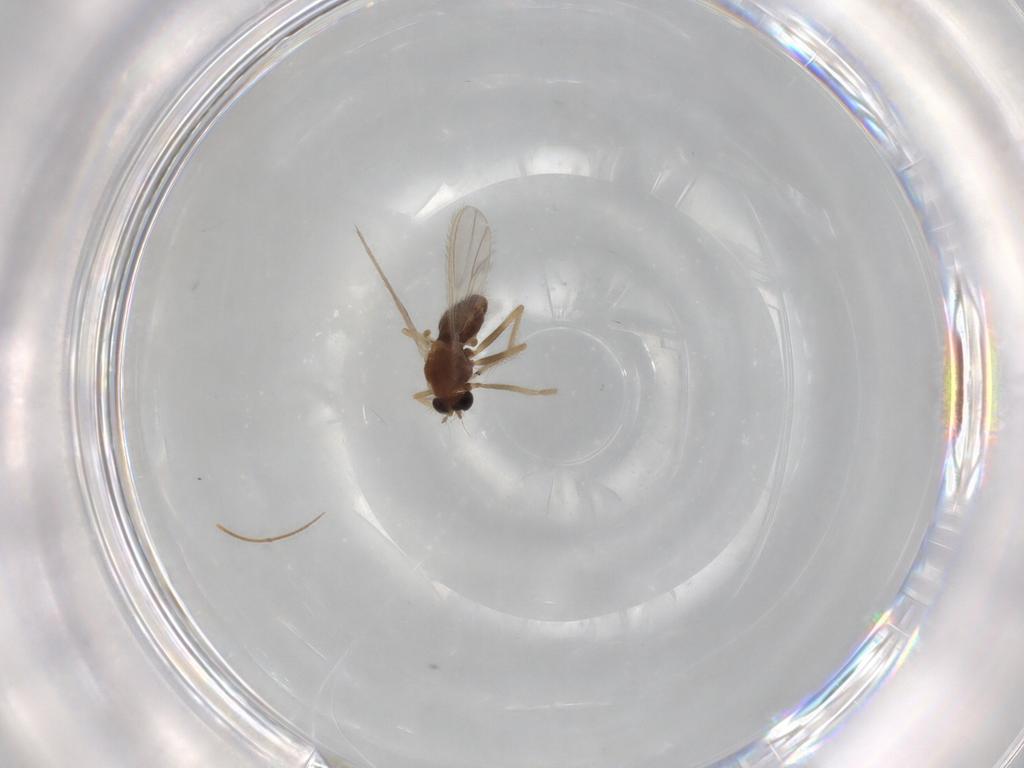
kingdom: Animalia
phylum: Arthropoda
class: Insecta
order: Diptera
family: Chironomidae
